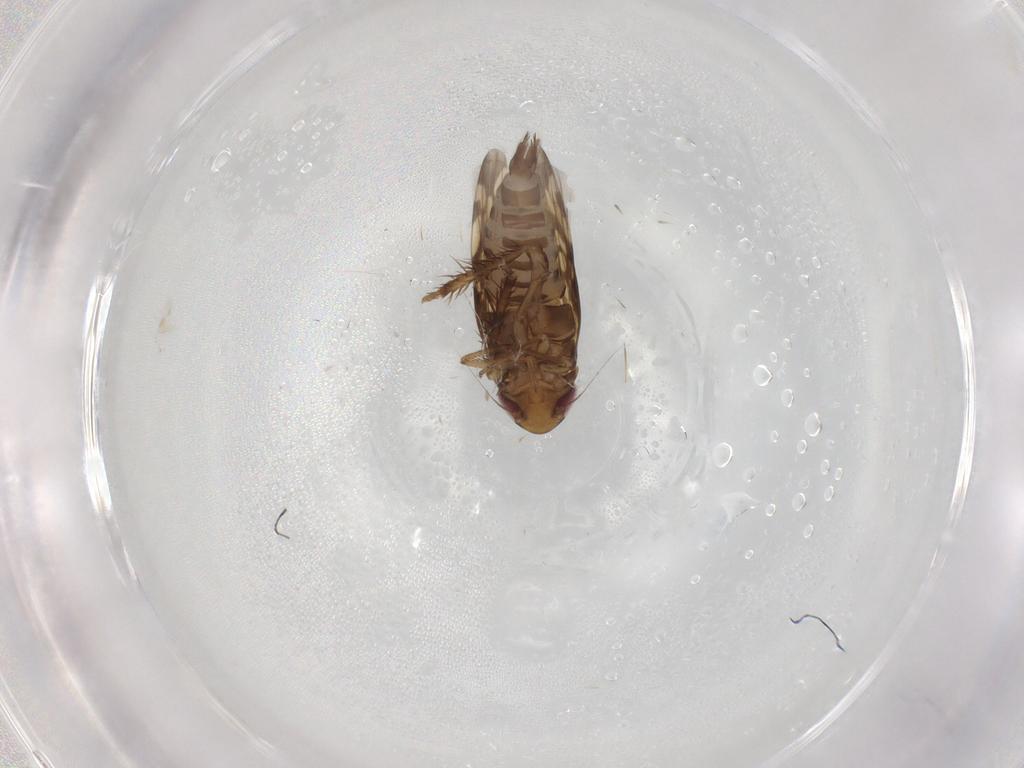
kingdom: Animalia
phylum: Arthropoda
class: Insecta
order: Hemiptera
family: Cicadellidae
